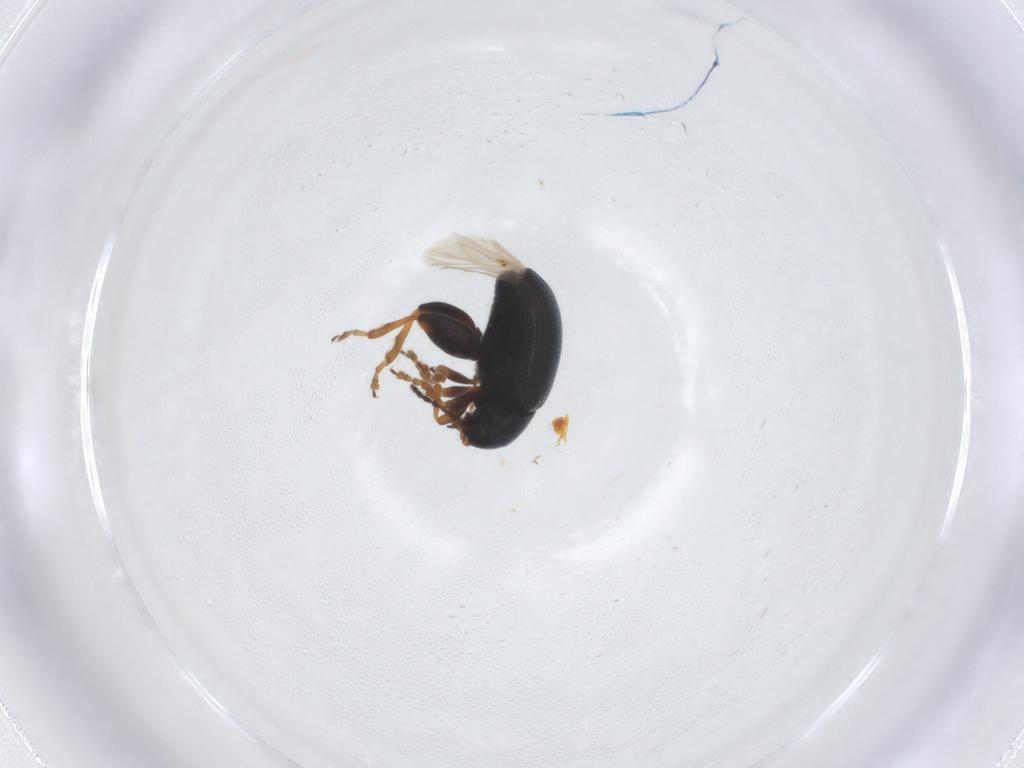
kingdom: Animalia
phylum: Arthropoda
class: Insecta
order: Coleoptera
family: Chrysomelidae
